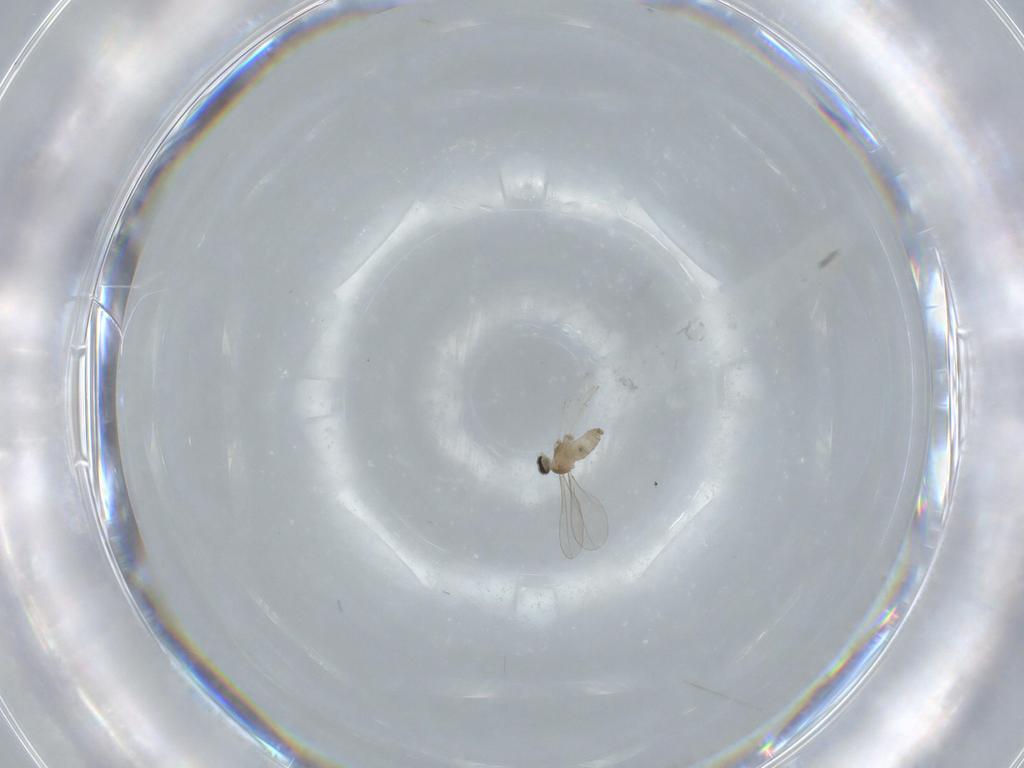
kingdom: Animalia
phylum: Arthropoda
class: Insecta
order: Diptera
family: Cecidomyiidae
